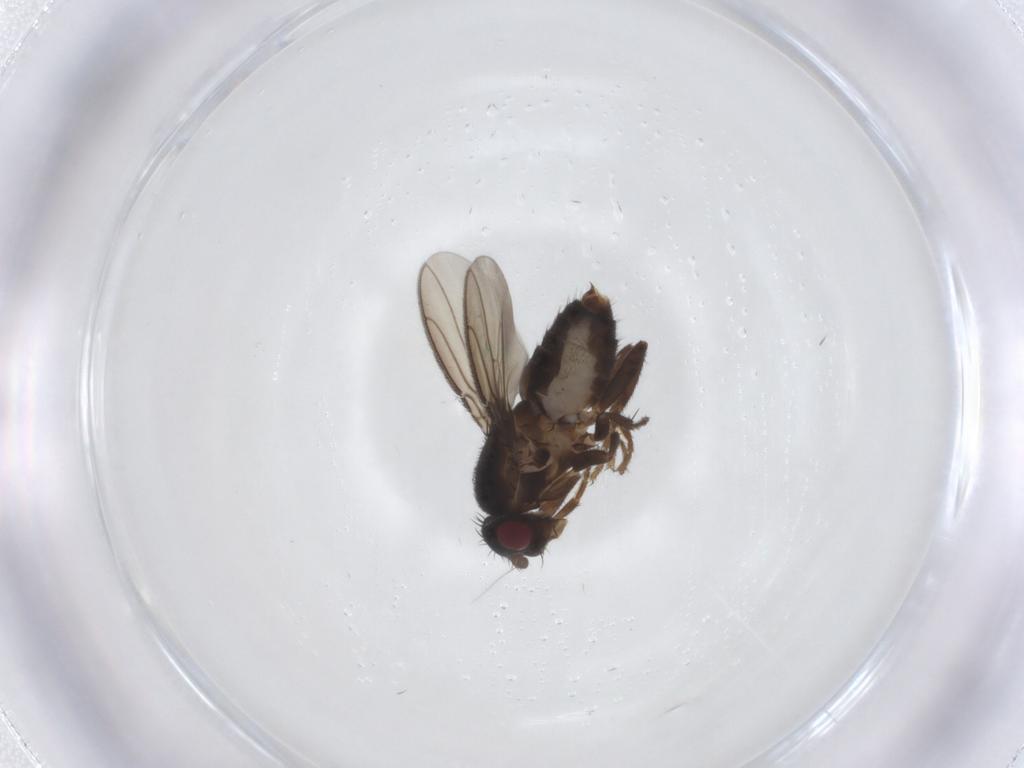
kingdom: Animalia
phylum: Arthropoda
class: Insecta
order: Diptera
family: Sphaeroceridae
